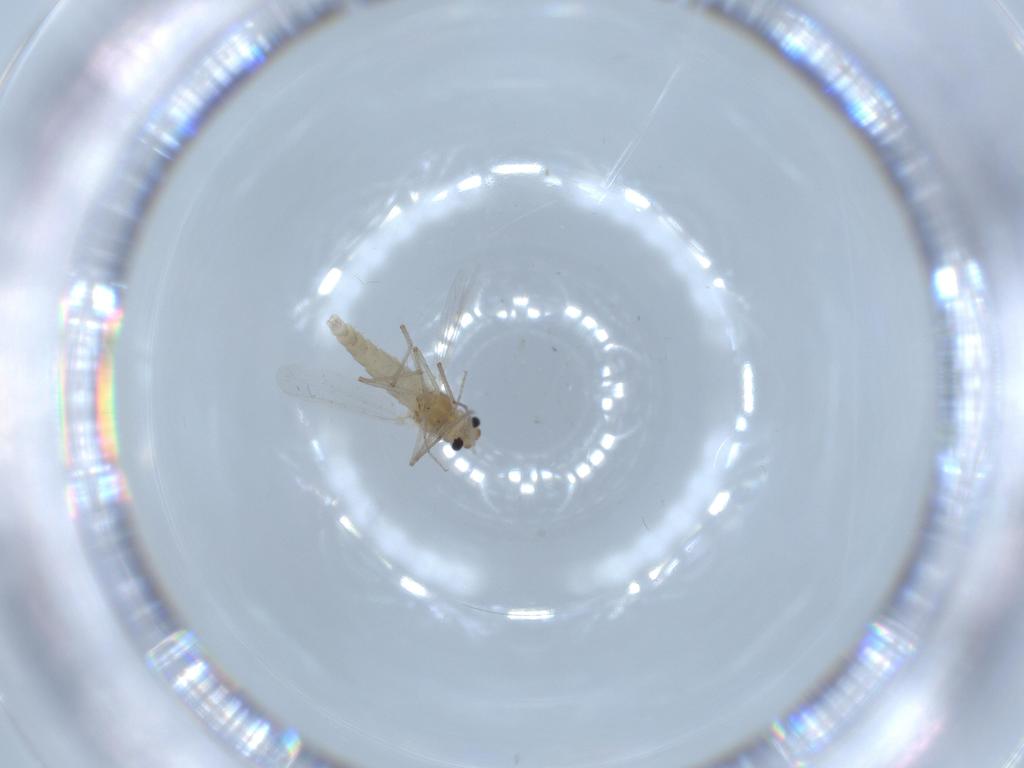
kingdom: Animalia
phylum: Arthropoda
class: Insecta
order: Diptera
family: Chironomidae
